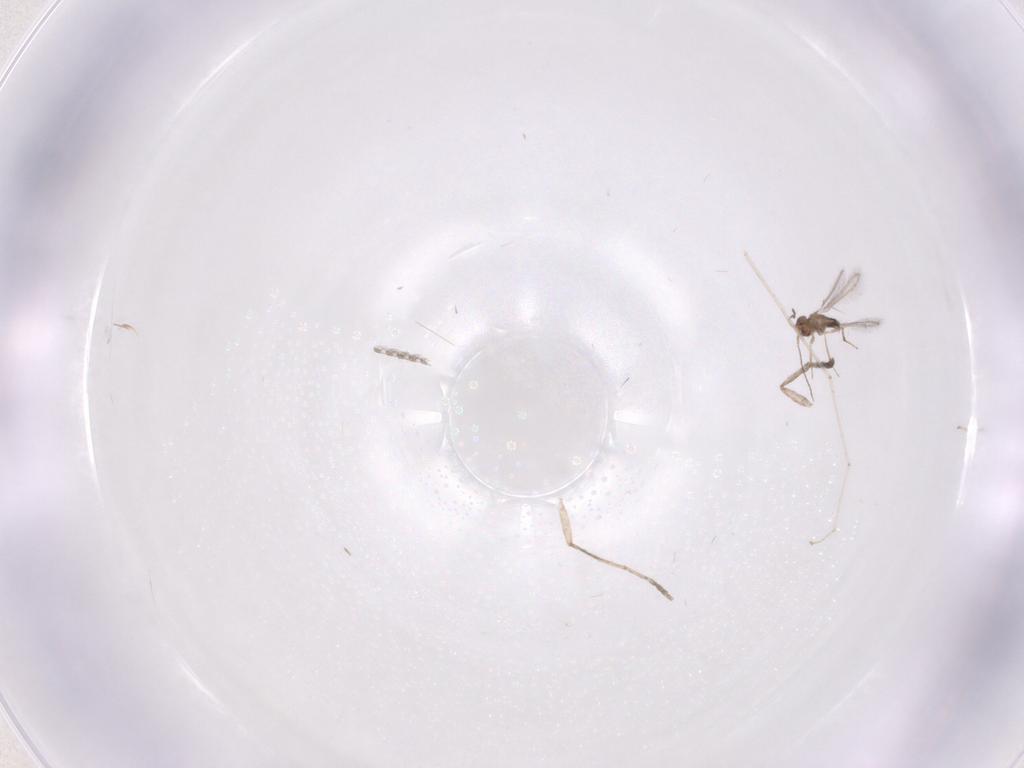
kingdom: Animalia
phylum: Arthropoda
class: Insecta
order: Hymenoptera
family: Mymaridae
